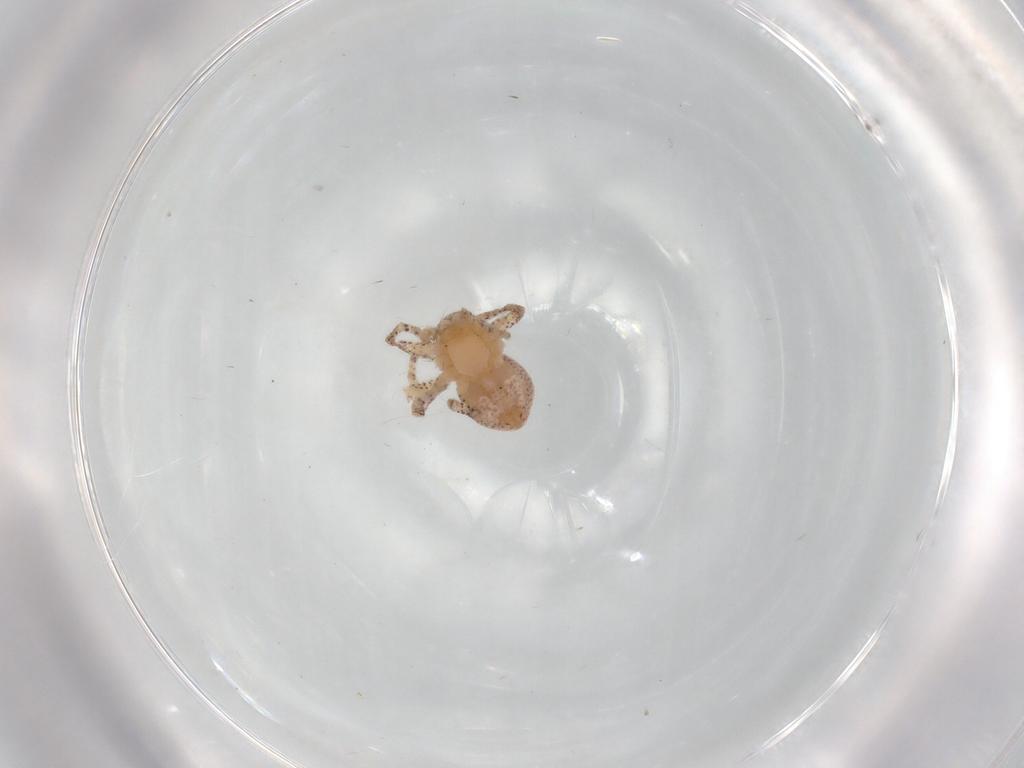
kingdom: Animalia
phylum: Arthropoda
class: Arachnida
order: Araneae
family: Philodromidae
